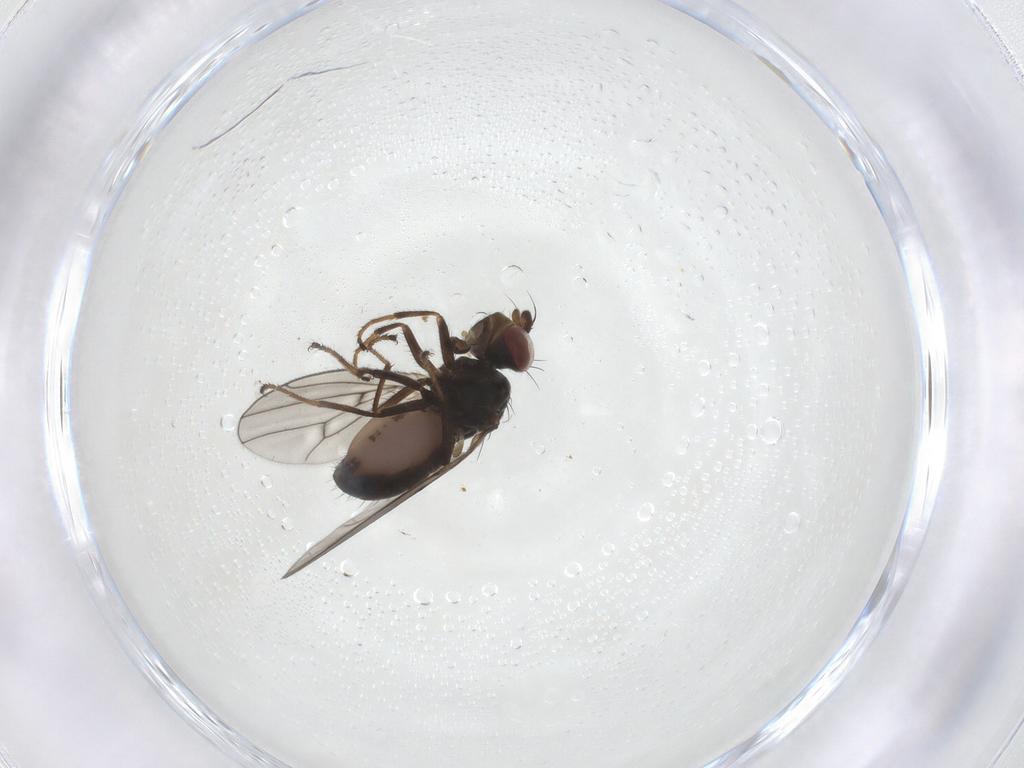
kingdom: Animalia
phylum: Arthropoda
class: Insecta
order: Diptera
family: Ephydridae
